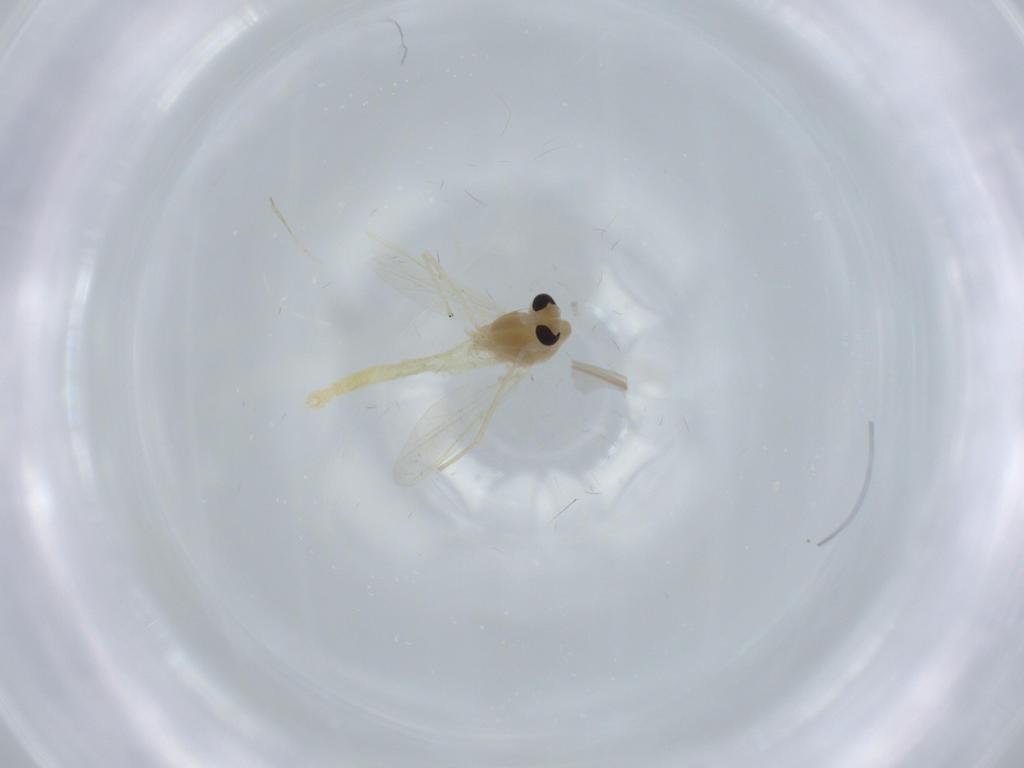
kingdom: Animalia
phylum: Arthropoda
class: Insecta
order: Diptera
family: Chironomidae
